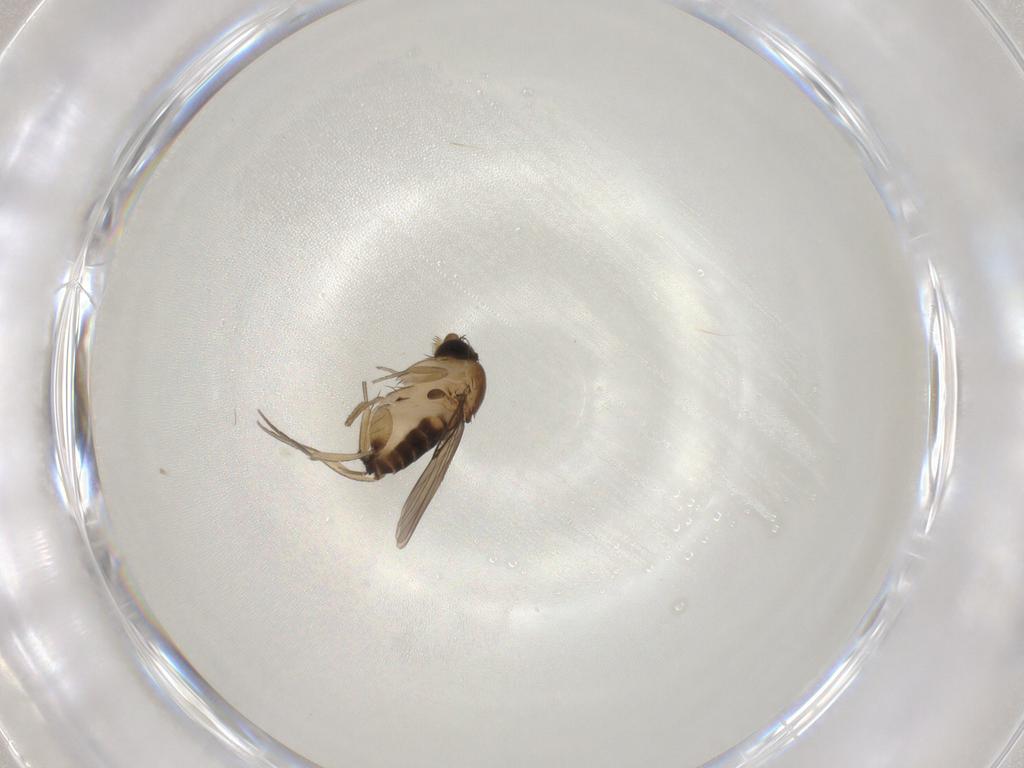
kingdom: Animalia
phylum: Arthropoda
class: Insecta
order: Diptera
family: Phoridae
